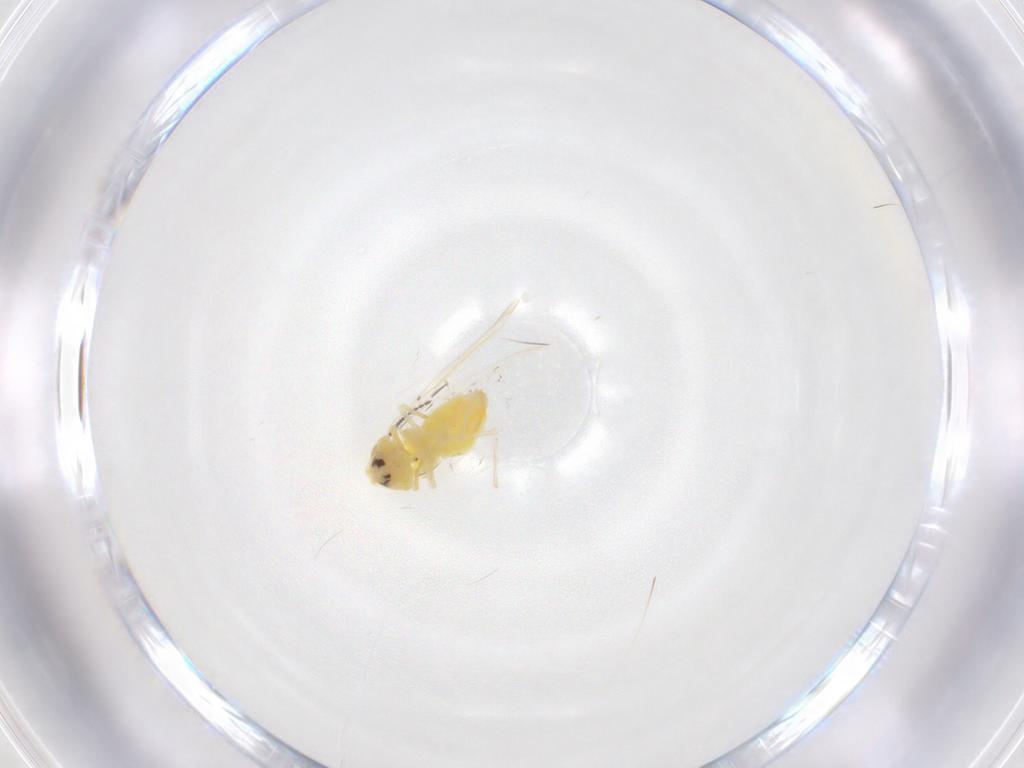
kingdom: Animalia
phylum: Arthropoda
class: Insecta
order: Hemiptera
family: Aleyrodidae
